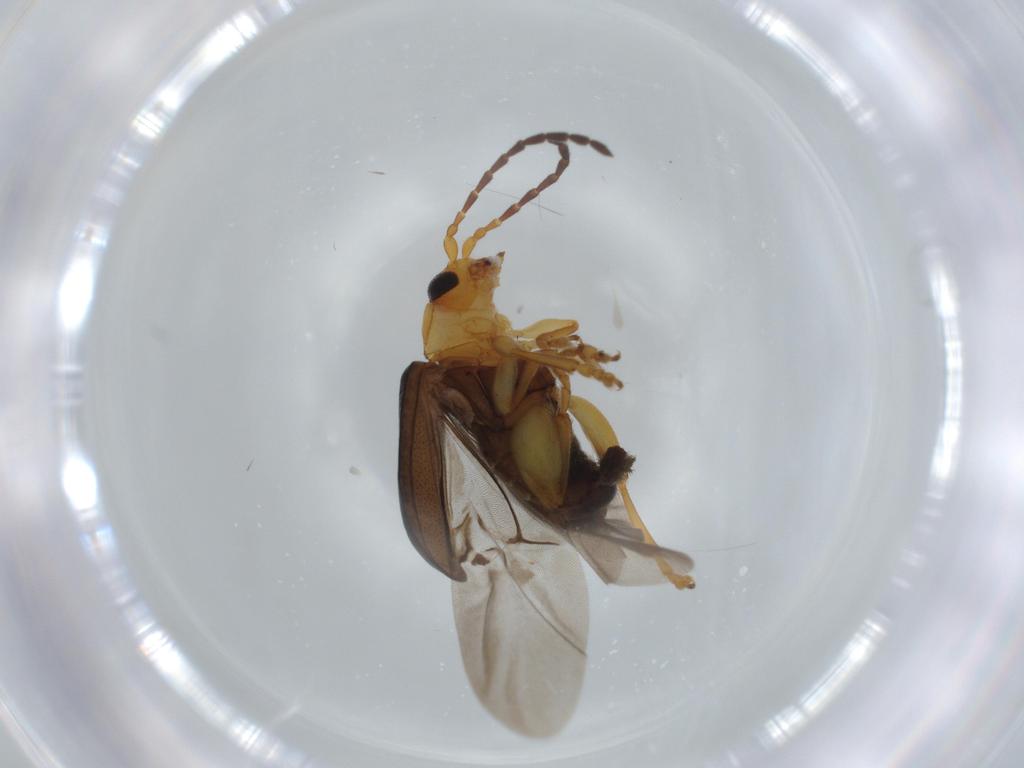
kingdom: Animalia
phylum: Arthropoda
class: Insecta
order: Coleoptera
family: Chrysomelidae
